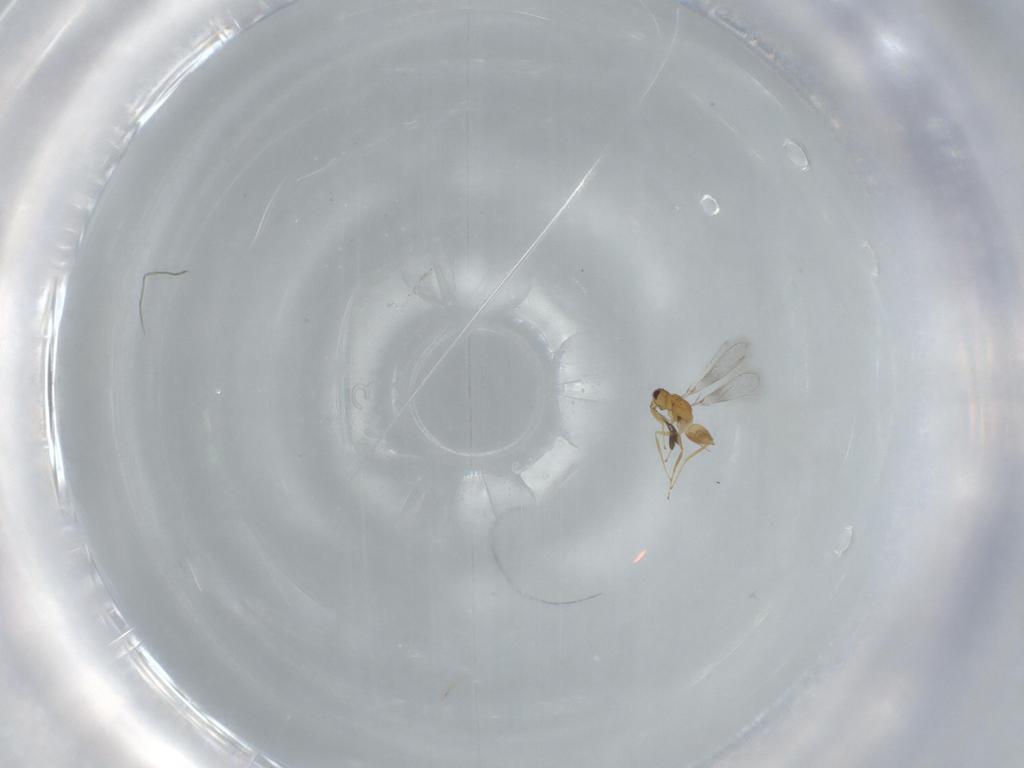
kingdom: Animalia
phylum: Arthropoda
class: Insecta
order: Hymenoptera
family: Mymaridae
